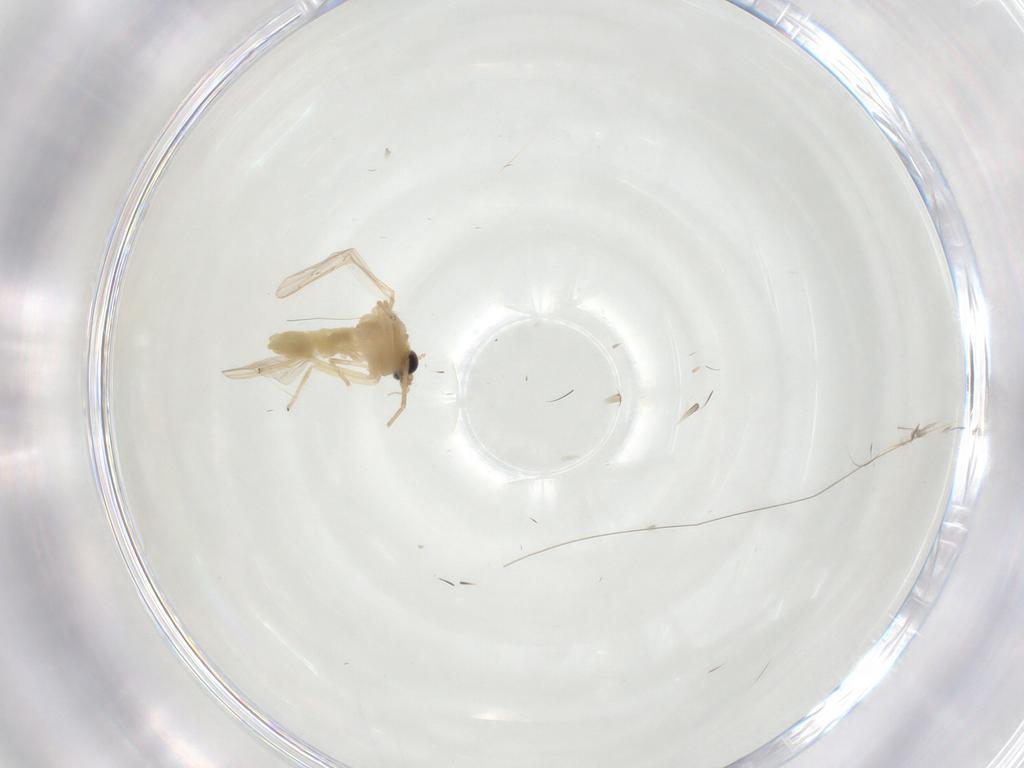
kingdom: Animalia
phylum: Arthropoda
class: Insecta
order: Diptera
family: Chironomidae
